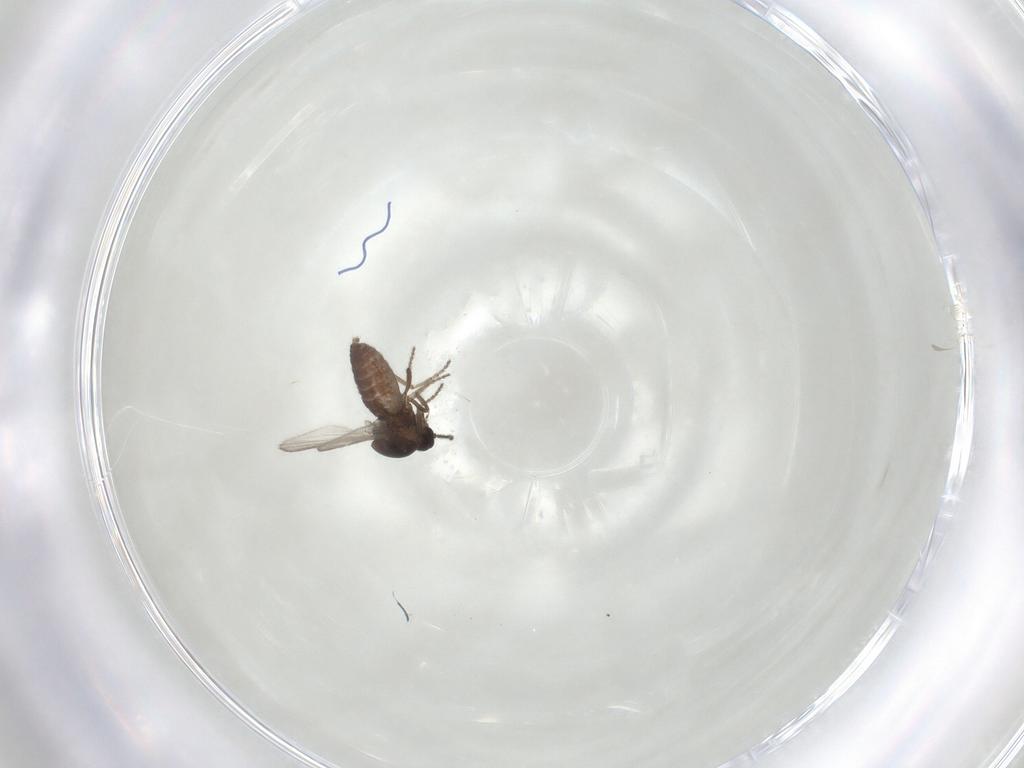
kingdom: Animalia
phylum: Arthropoda
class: Insecta
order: Diptera
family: Ceratopogonidae
